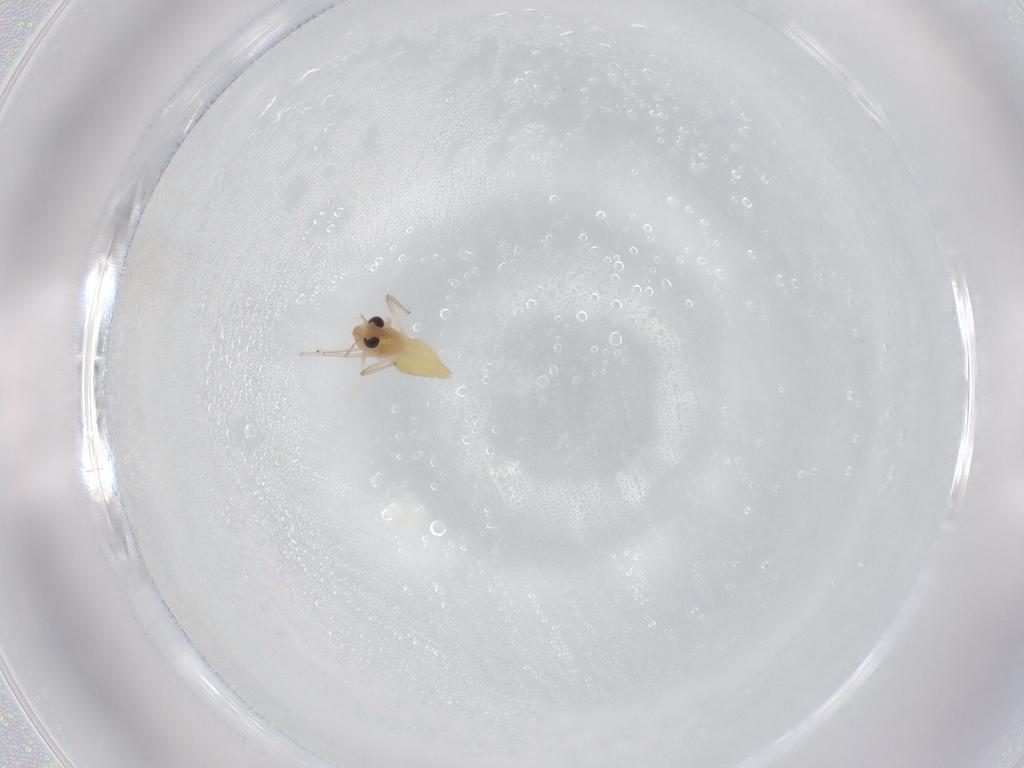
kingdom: Animalia
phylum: Arthropoda
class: Insecta
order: Diptera
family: Chironomidae
